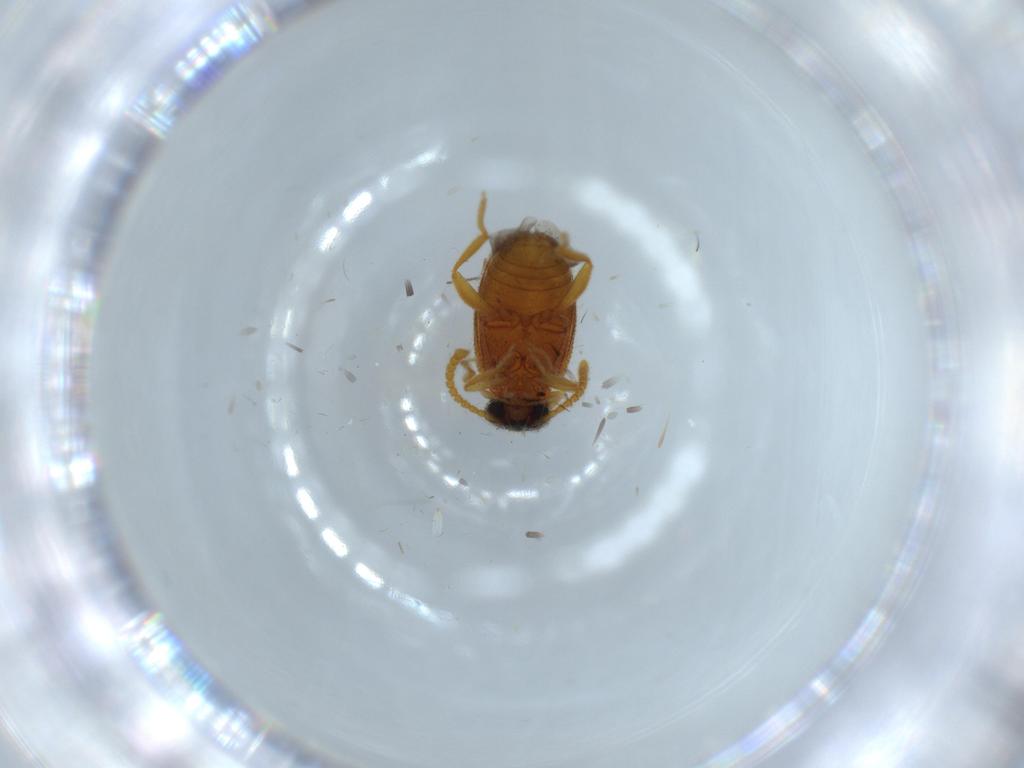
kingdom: Animalia
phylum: Arthropoda
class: Insecta
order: Coleoptera
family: Aderidae
